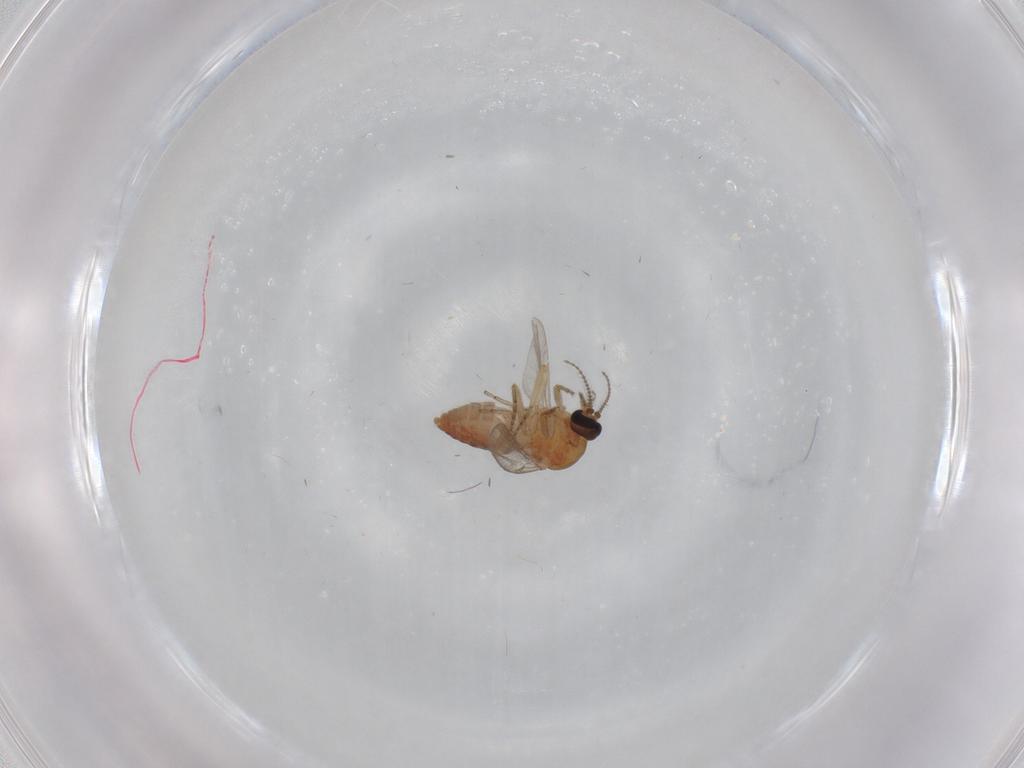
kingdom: Animalia
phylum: Arthropoda
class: Insecta
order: Diptera
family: Ceratopogonidae
